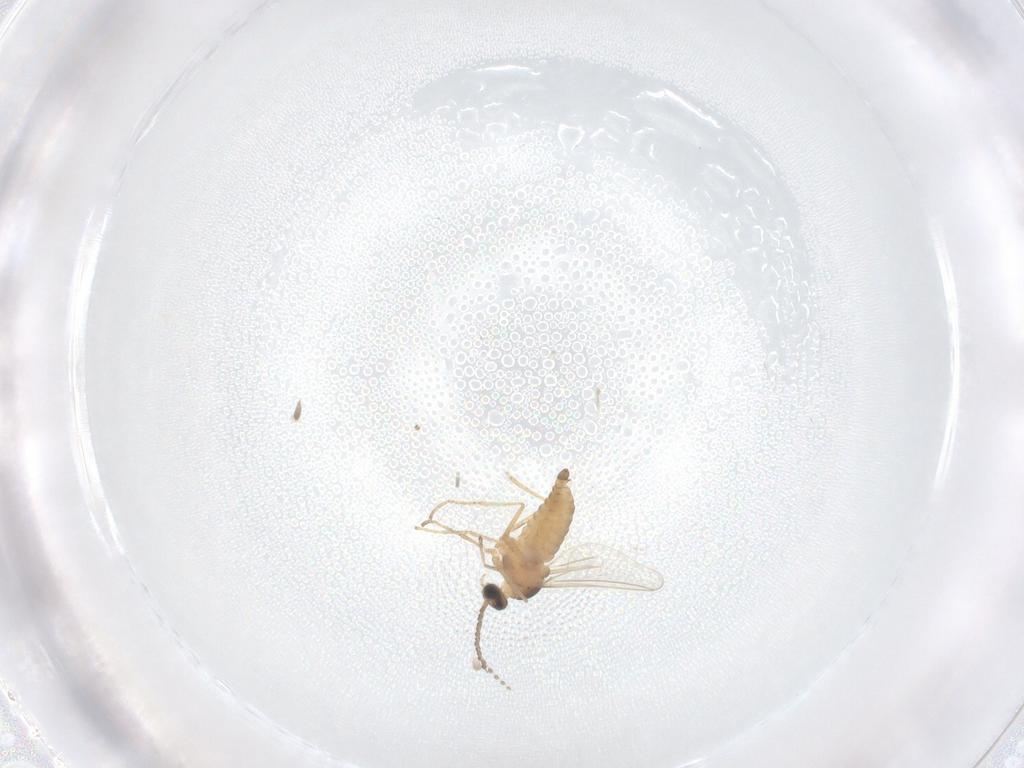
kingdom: Animalia
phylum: Arthropoda
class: Insecta
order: Diptera
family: Cecidomyiidae
